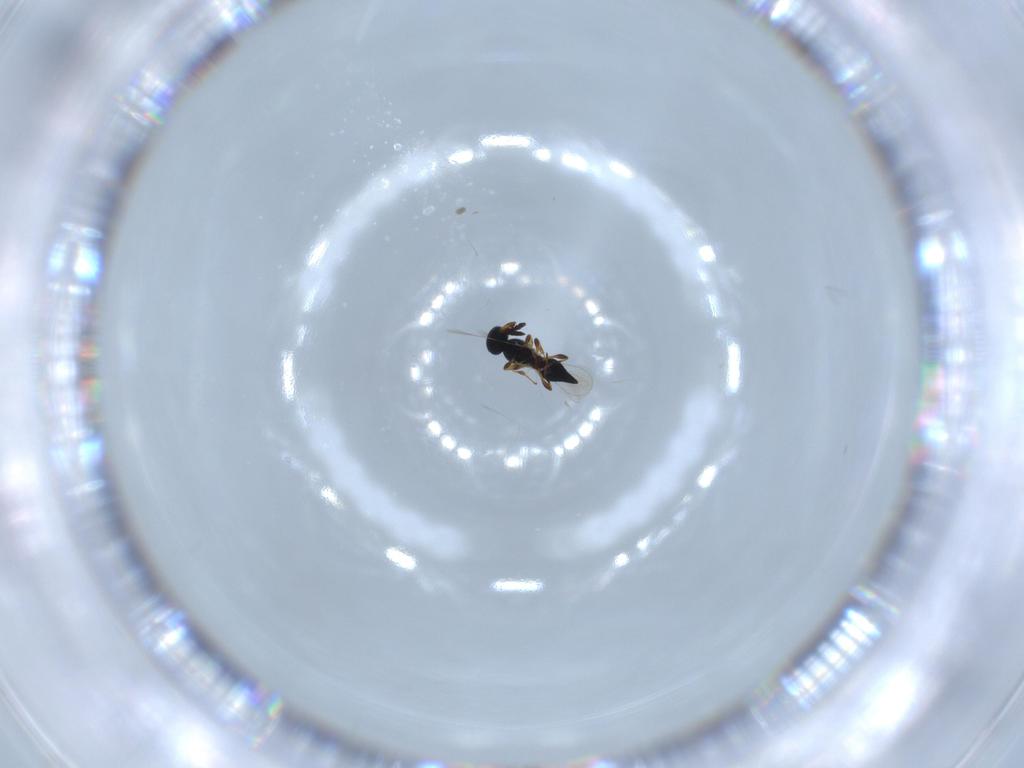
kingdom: Animalia
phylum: Arthropoda
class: Insecta
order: Hymenoptera
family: Platygastridae
